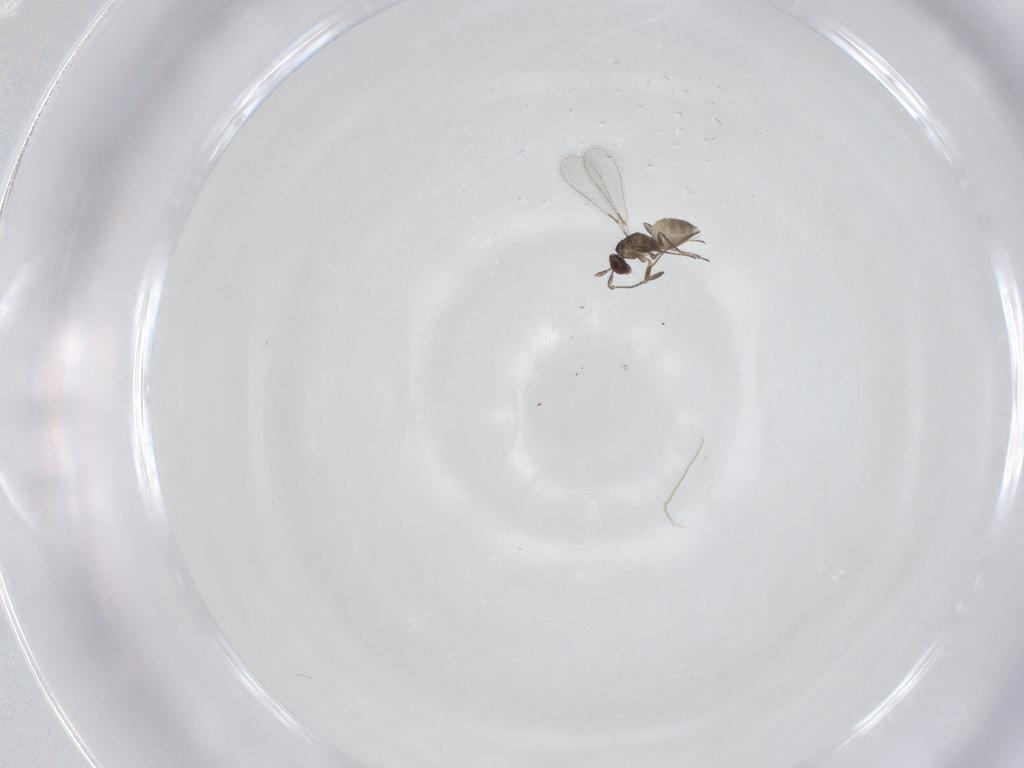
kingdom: Animalia
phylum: Arthropoda
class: Insecta
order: Hymenoptera
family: Mymaridae
